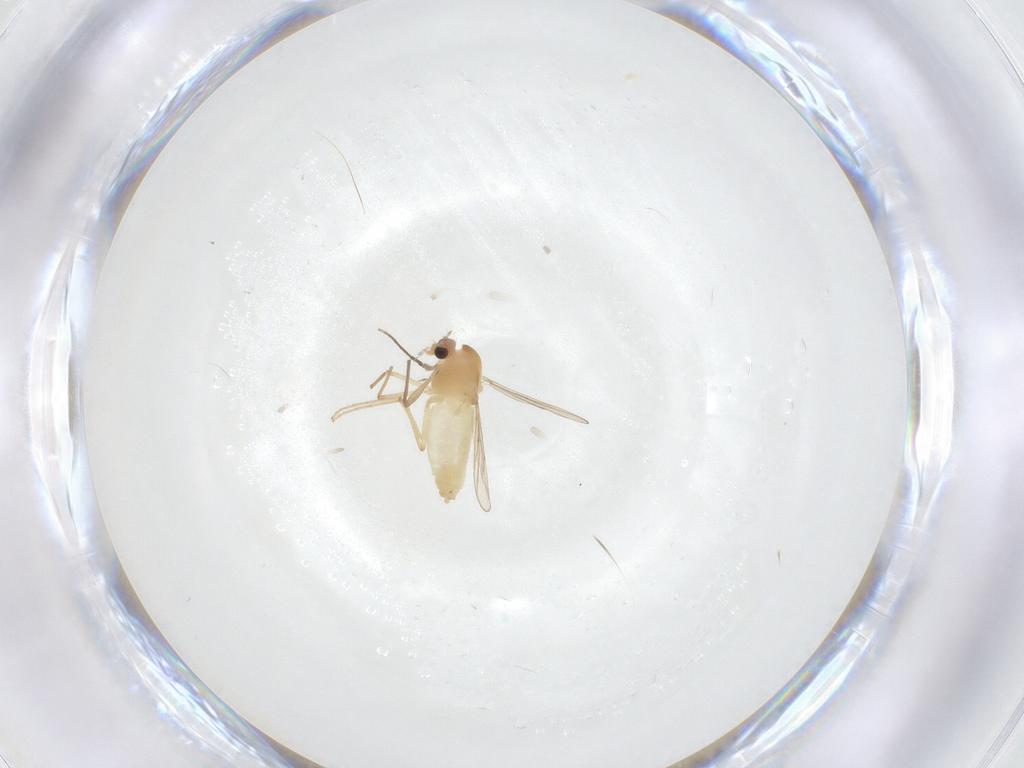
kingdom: Animalia
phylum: Arthropoda
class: Insecta
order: Diptera
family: Chironomidae
